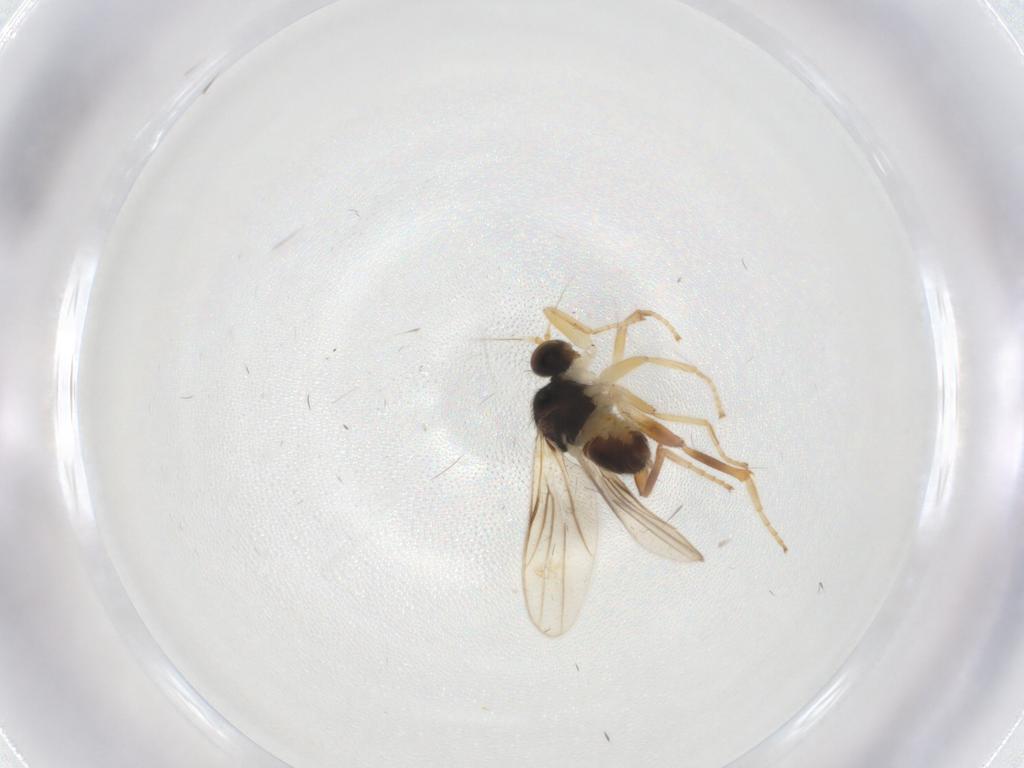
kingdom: Animalia
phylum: Arthropoda
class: Insecta
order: Diptera
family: Hybotidae
